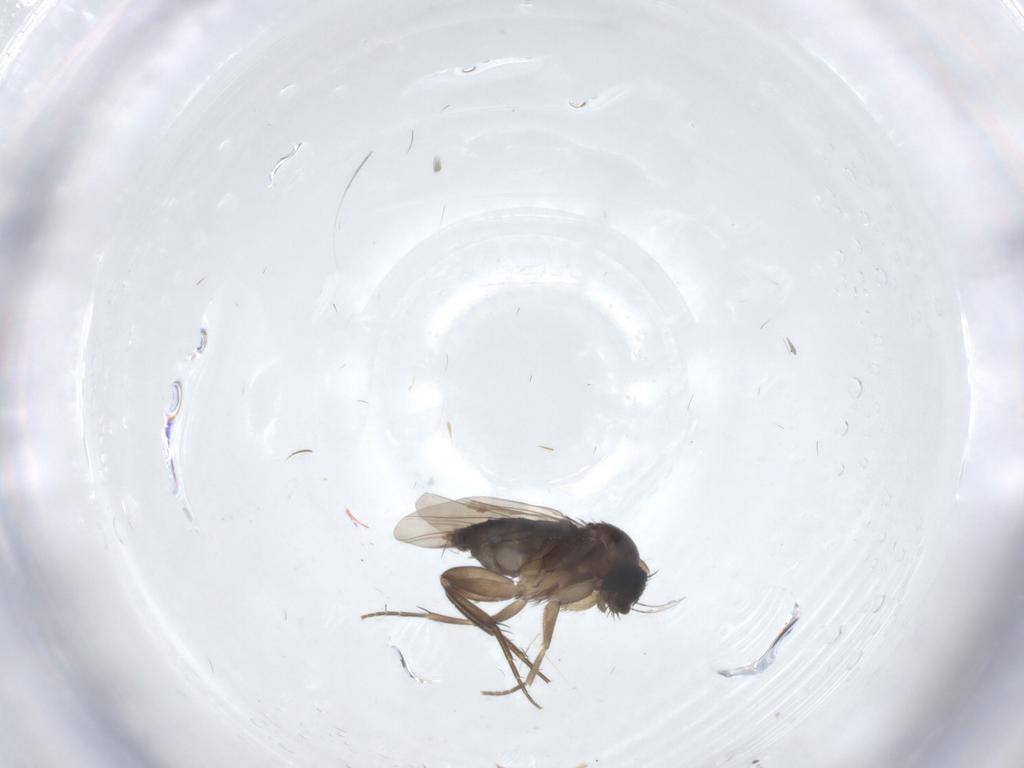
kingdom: Animalia
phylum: Arthropoda
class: Insecta
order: Diptera
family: Phoridae
